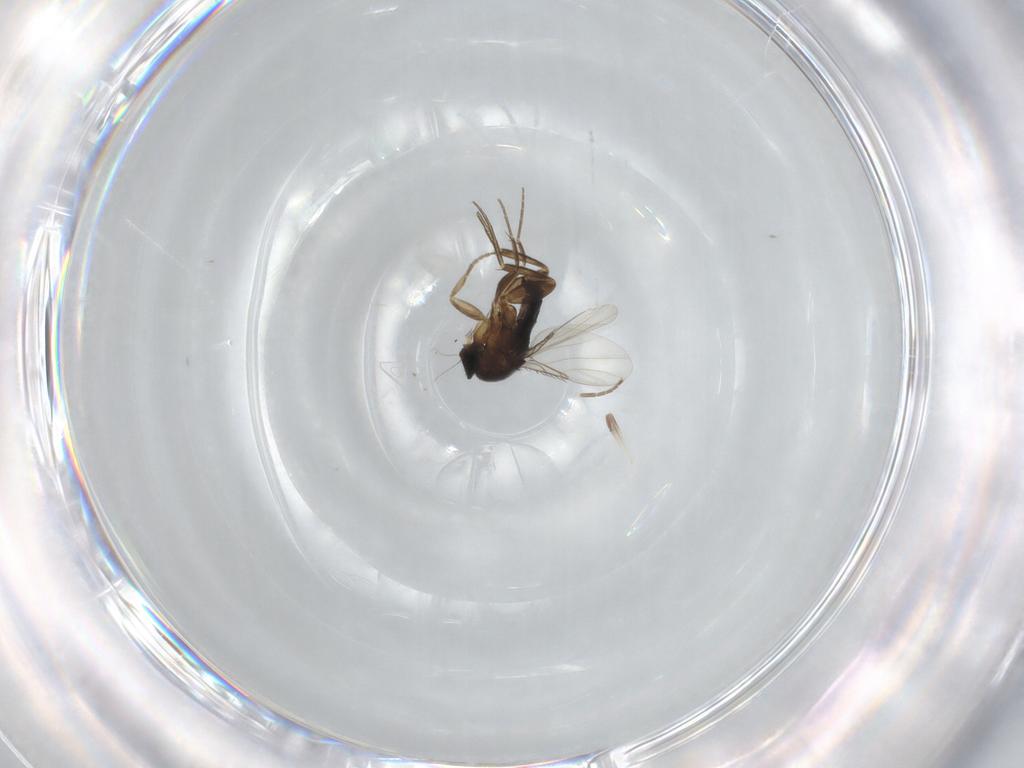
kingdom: Animalia
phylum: Arthropoda
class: Insecta
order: Diptera
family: Phoridae
